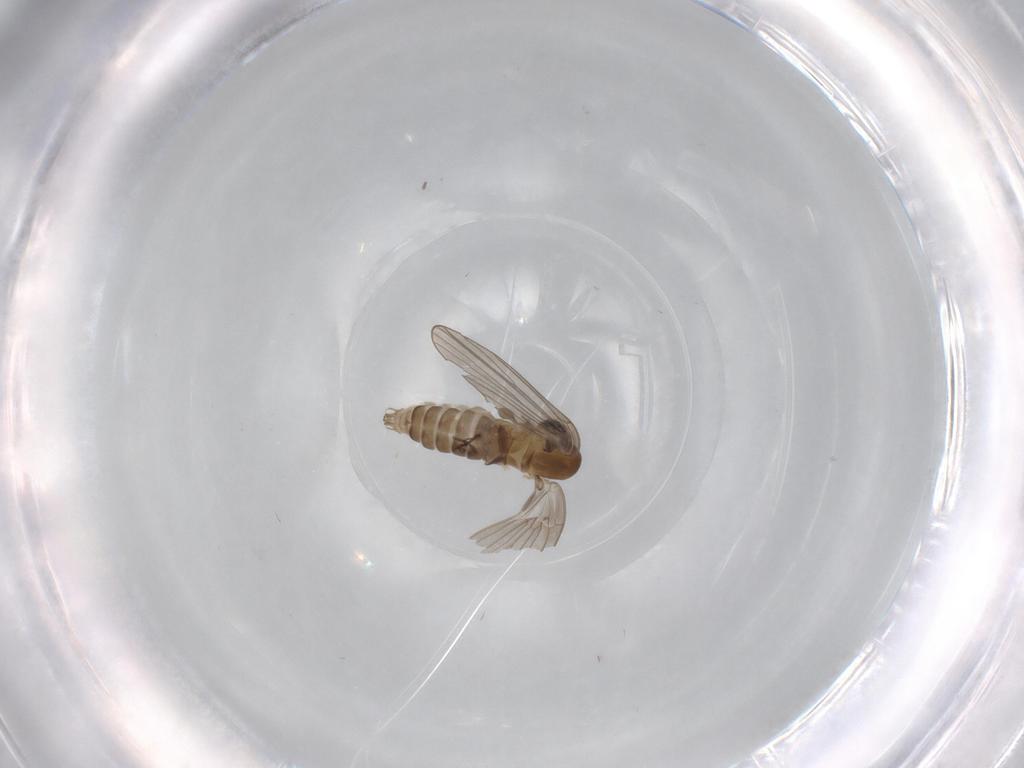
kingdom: Animalia
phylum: Arthropoda
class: Insecta
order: Diptera
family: Psychodidae
